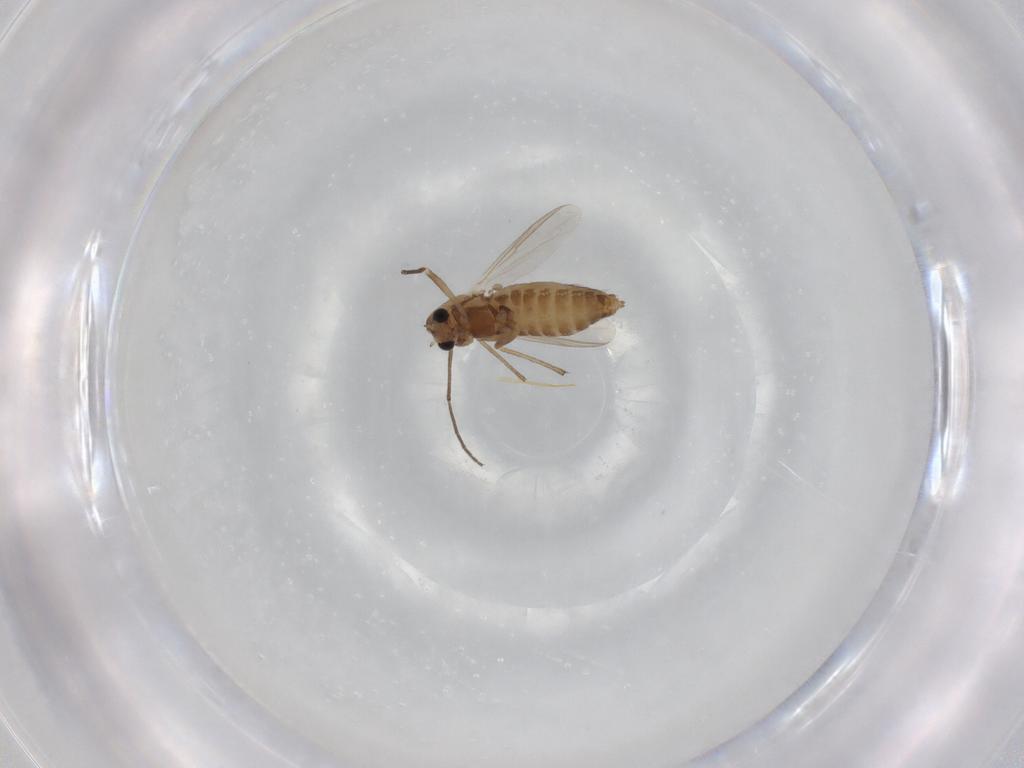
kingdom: Animalia
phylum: Arthropoda
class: Insecta
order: Diptera
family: Chironomidae
